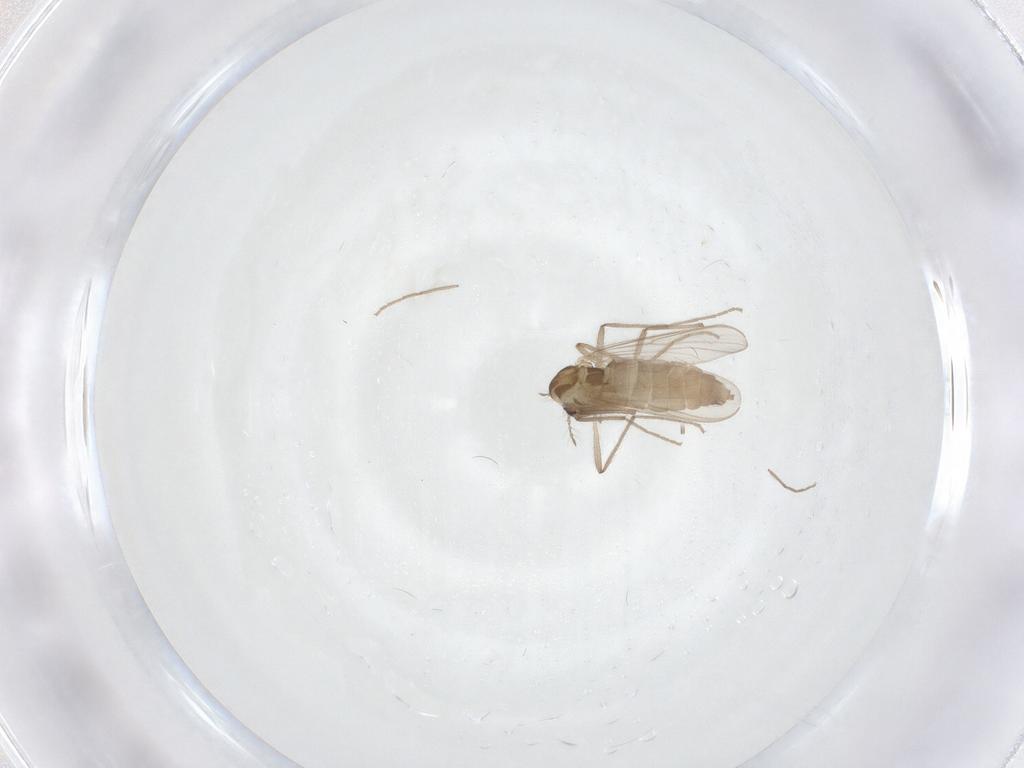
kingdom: Animalia
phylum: Arthropoda
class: Insecta
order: Diptera
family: Chironomidae
